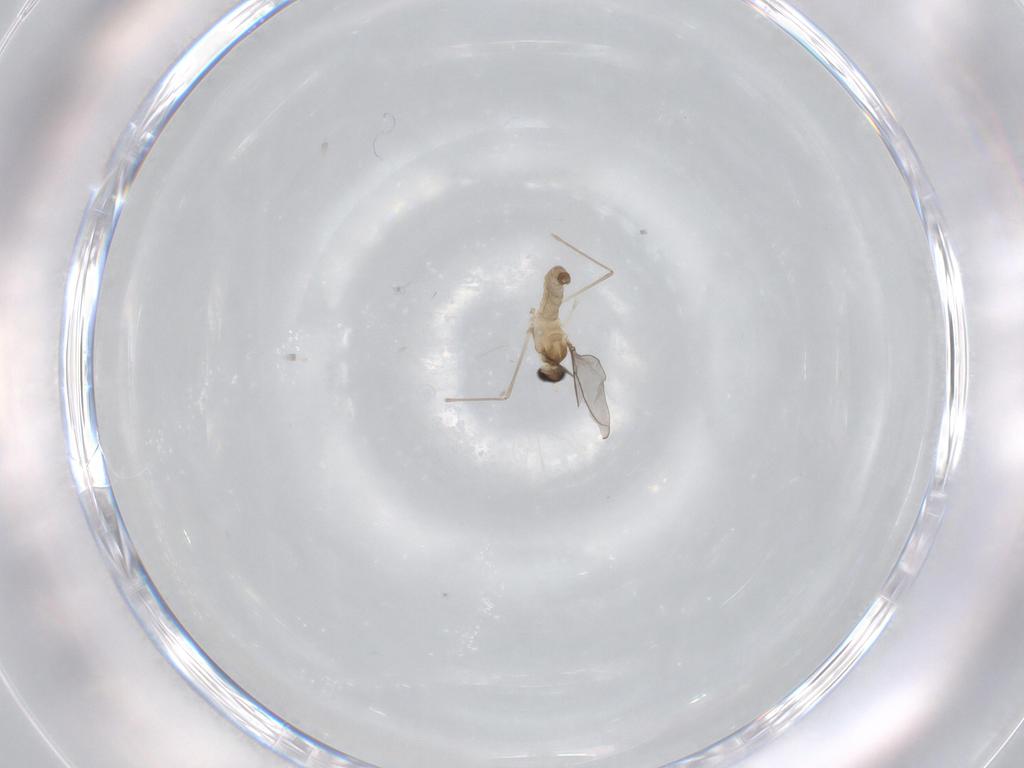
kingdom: Animalia
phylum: Arthropoda
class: Insecta
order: Diptera
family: Cecidomyiidae
